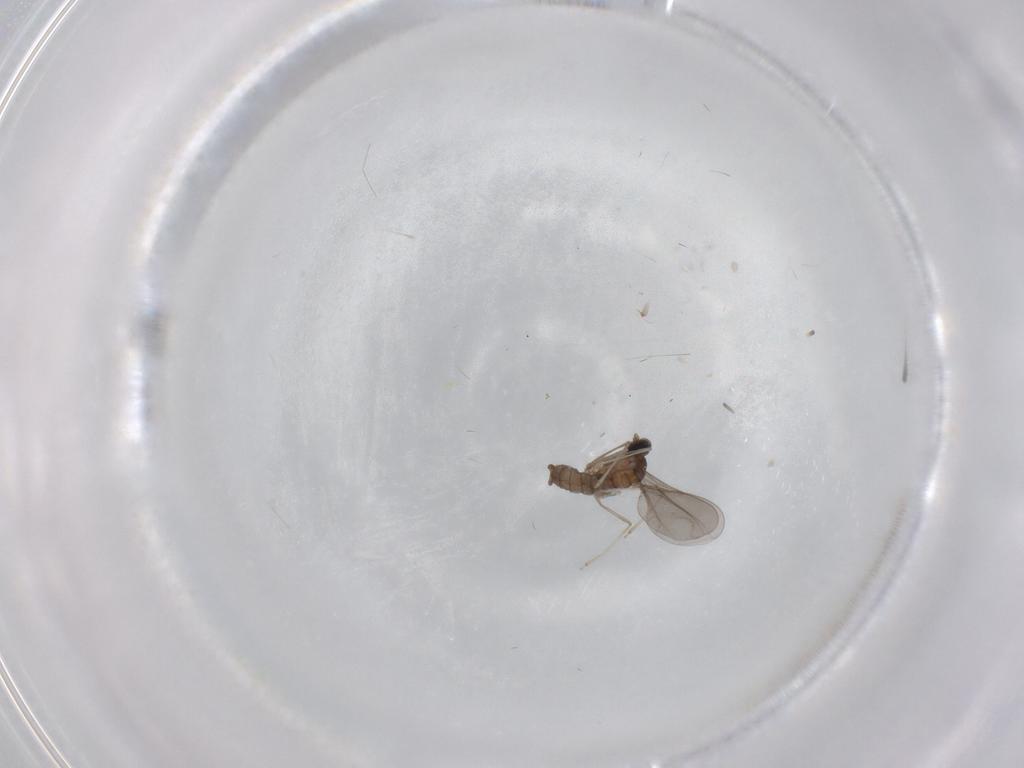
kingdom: Animalia
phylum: Arthropoda
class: Insecta
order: Diptera
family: Cecidomyiidae
